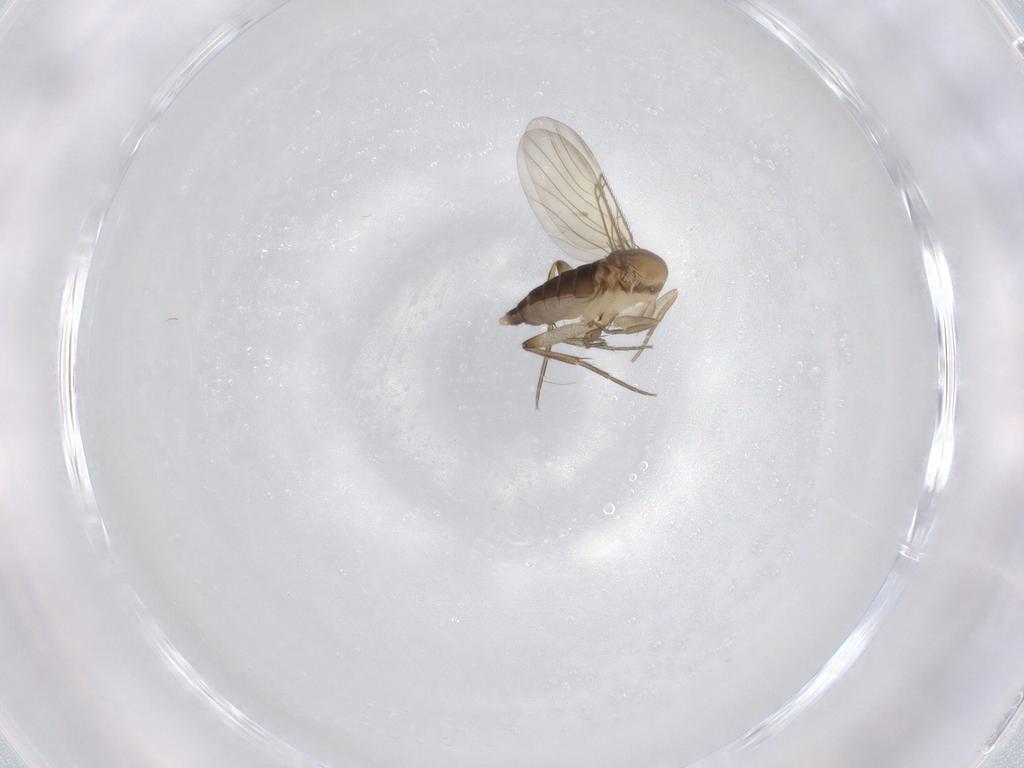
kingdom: Animalia
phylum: Arthropoda
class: Insecta
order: Diptera
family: Phoridae
